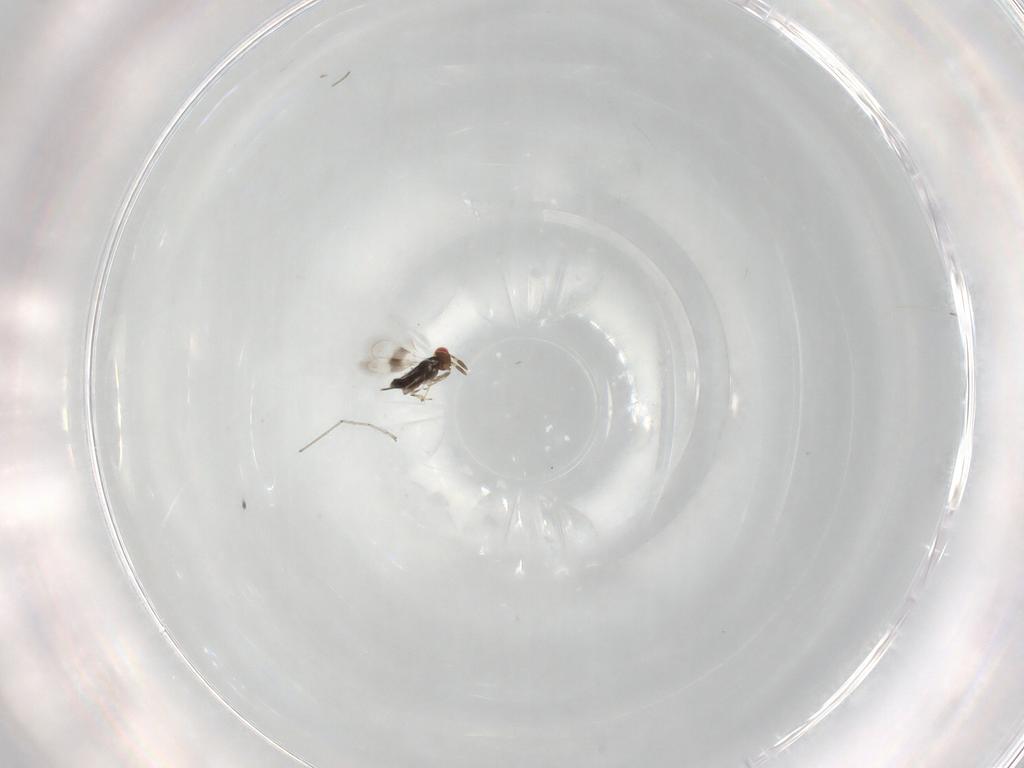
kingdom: Animalia
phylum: Arthropoda
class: Insecta
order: Hymenoptera
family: Azotidae
